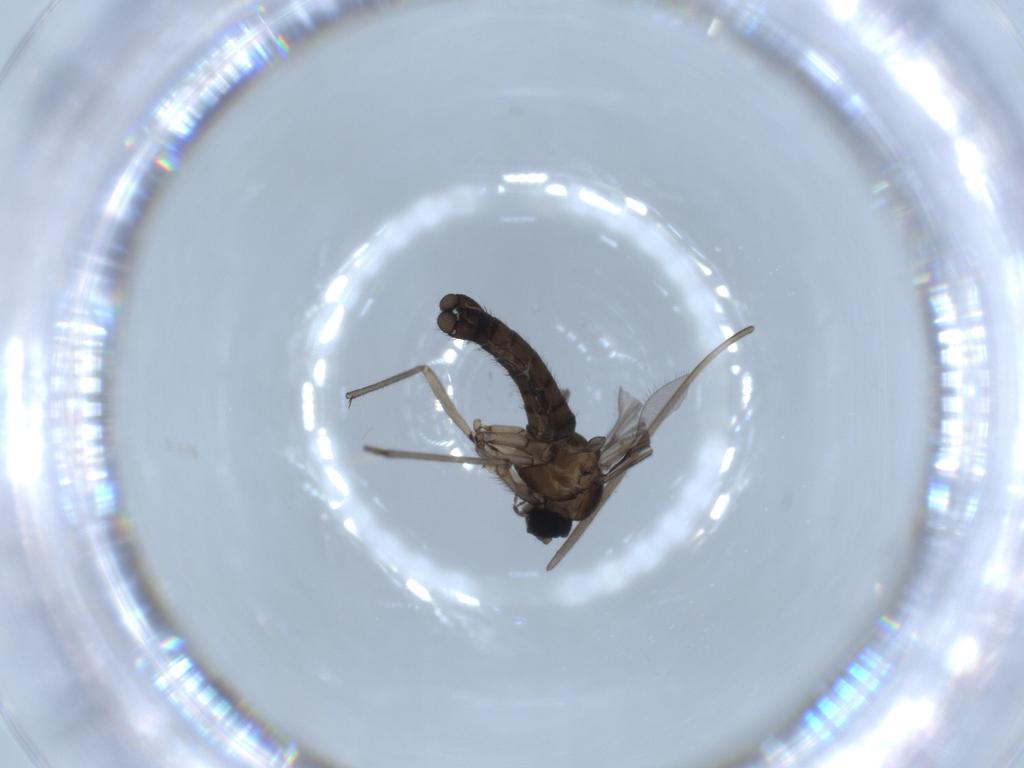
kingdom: Animalia
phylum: Arthropoda
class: Insecta
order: Diptera
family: Sciaridae
